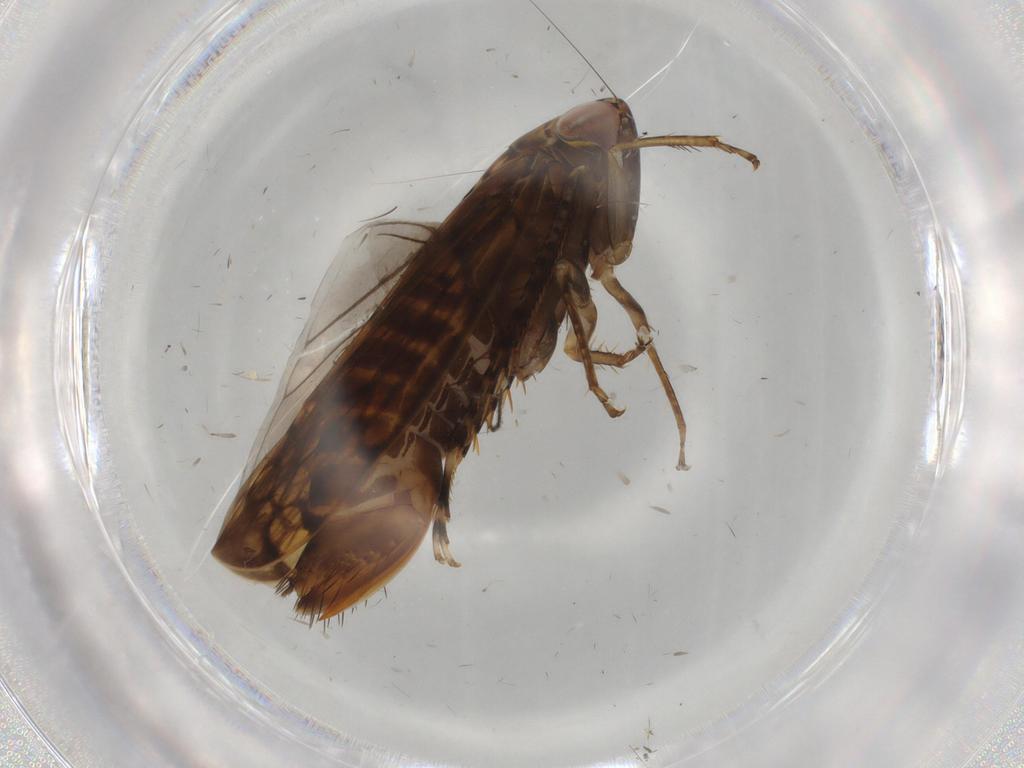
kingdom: Animalia
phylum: Arthropoda
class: Insecta
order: Hemiptera
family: Cicadellidae
